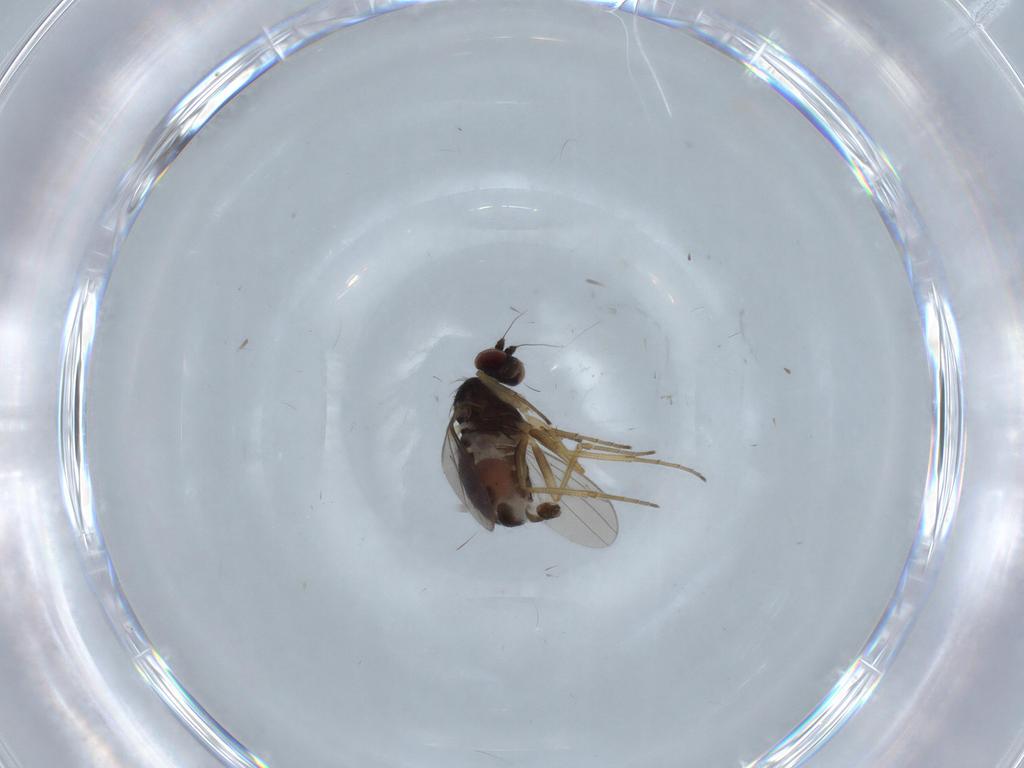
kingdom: Animalia
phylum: Arthropoda
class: Insecta
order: Diptera
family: Dolichopodidae
